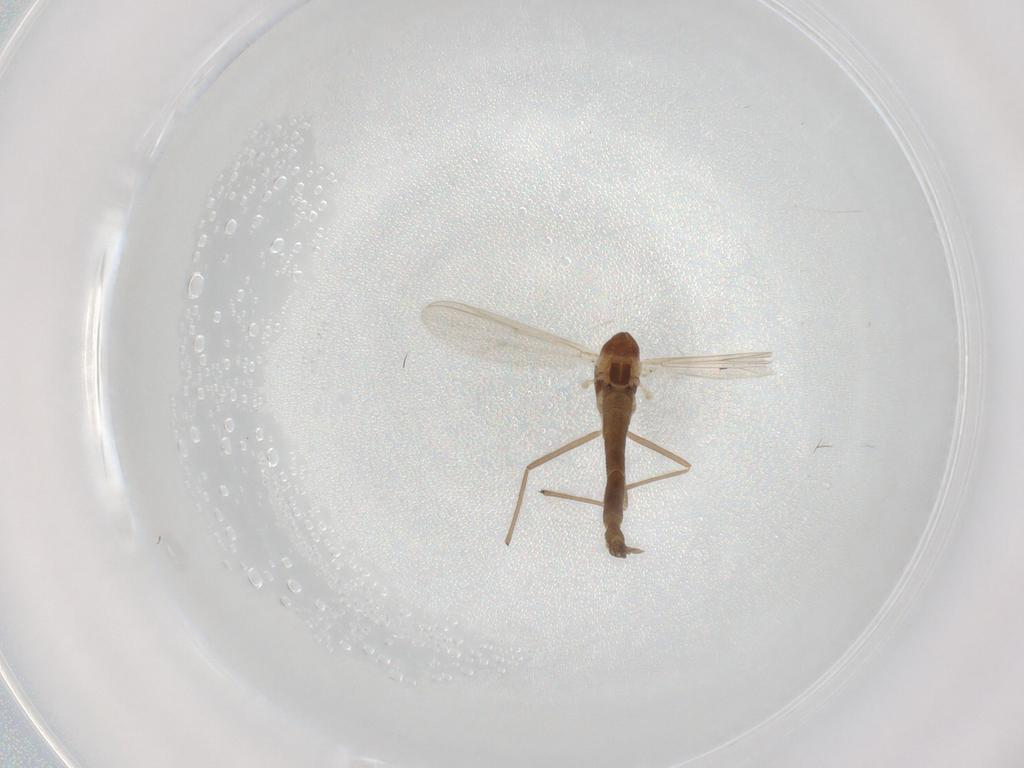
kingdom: Animalia
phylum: Arthropoda
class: Insecta
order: Diptera
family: Chironomidae
